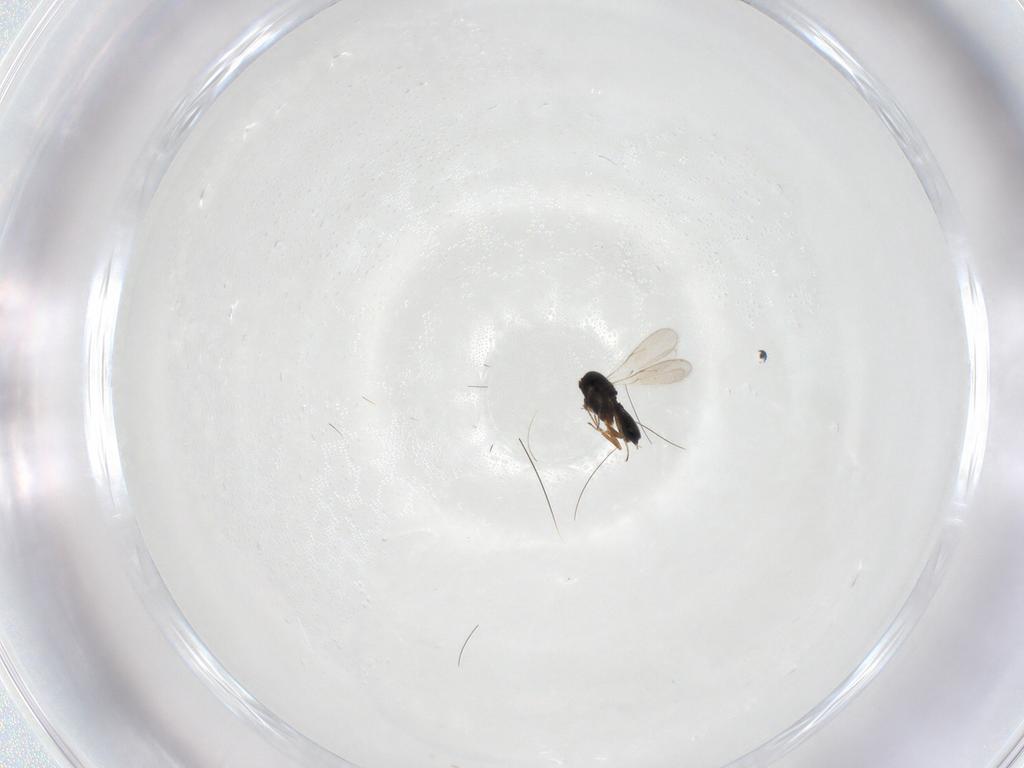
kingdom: Animalia
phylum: Arthropoda
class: Insecta
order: Hymenoptera
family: Scelionidae
